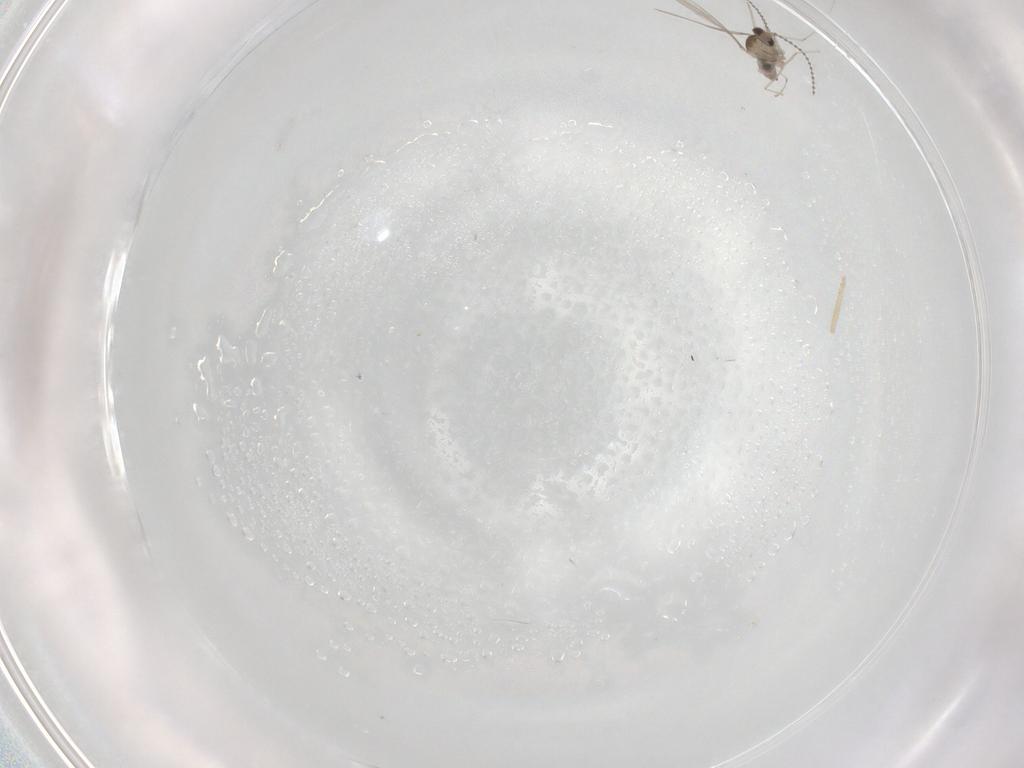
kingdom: Animalia
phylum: Arthropoda
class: Insecta
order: Diptera
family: Cecidomyiidae
